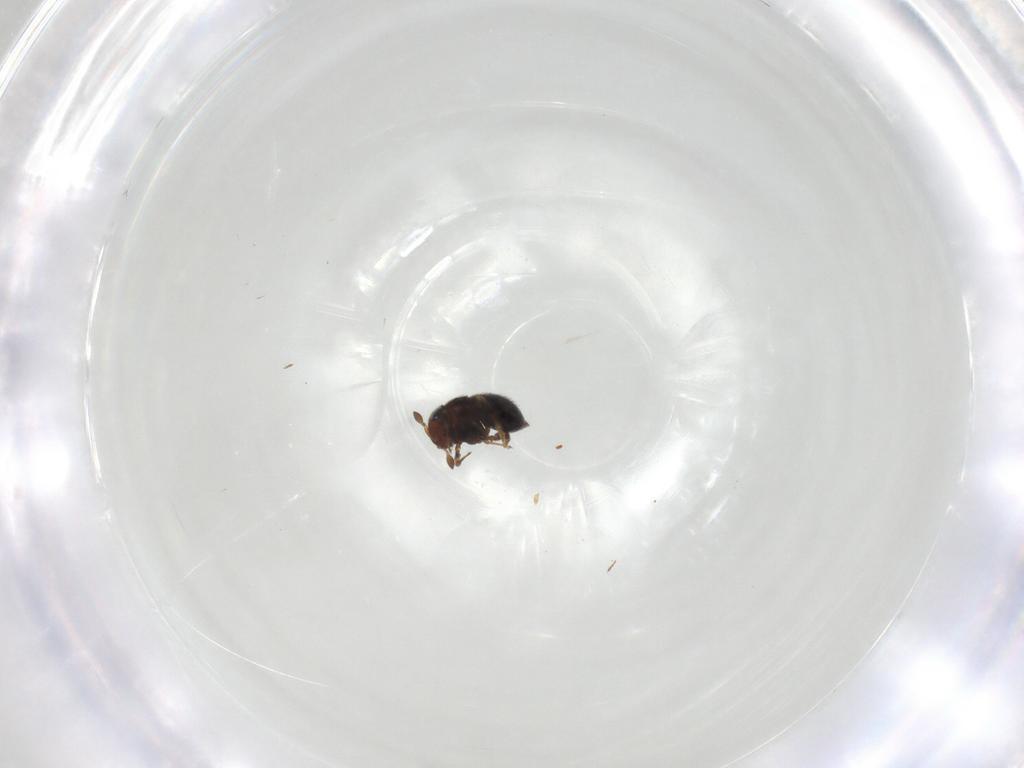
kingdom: Animalia
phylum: Arthropoda
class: Insecta
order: Hymenoptera
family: Scelionidae
